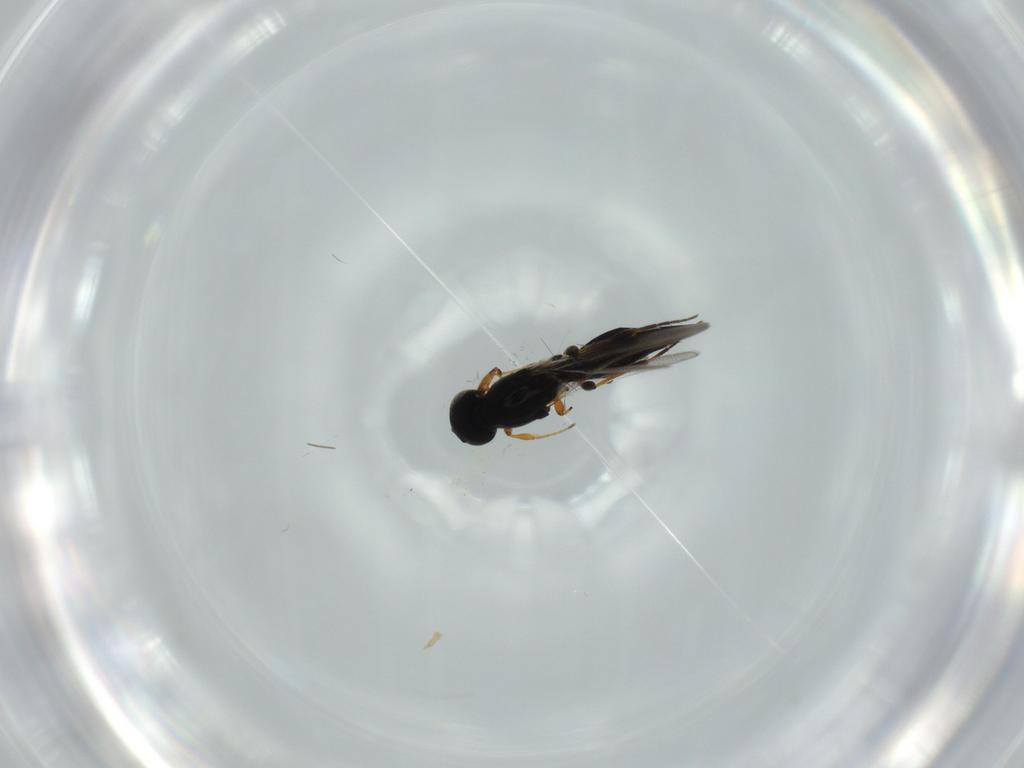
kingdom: Animalia
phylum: Arthropoda
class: Insecta
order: Hymenoptera
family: Platygastridae
